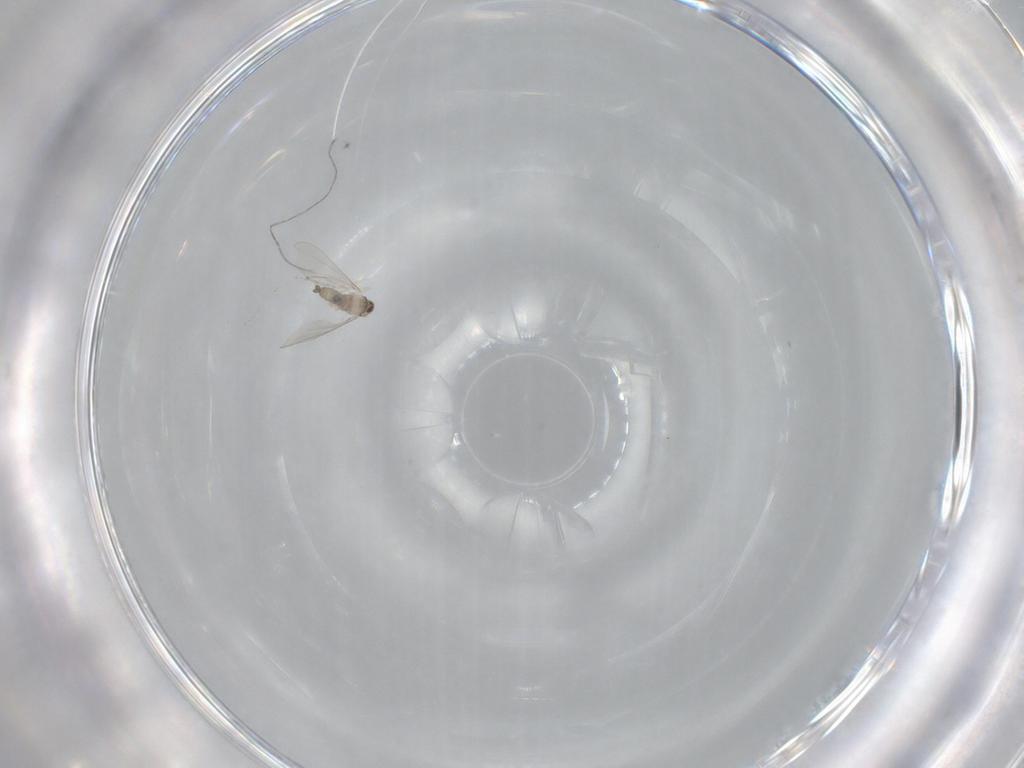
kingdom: Animalia
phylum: Arthropoda
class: Insecta
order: Diptera
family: Cecidomyiidae
